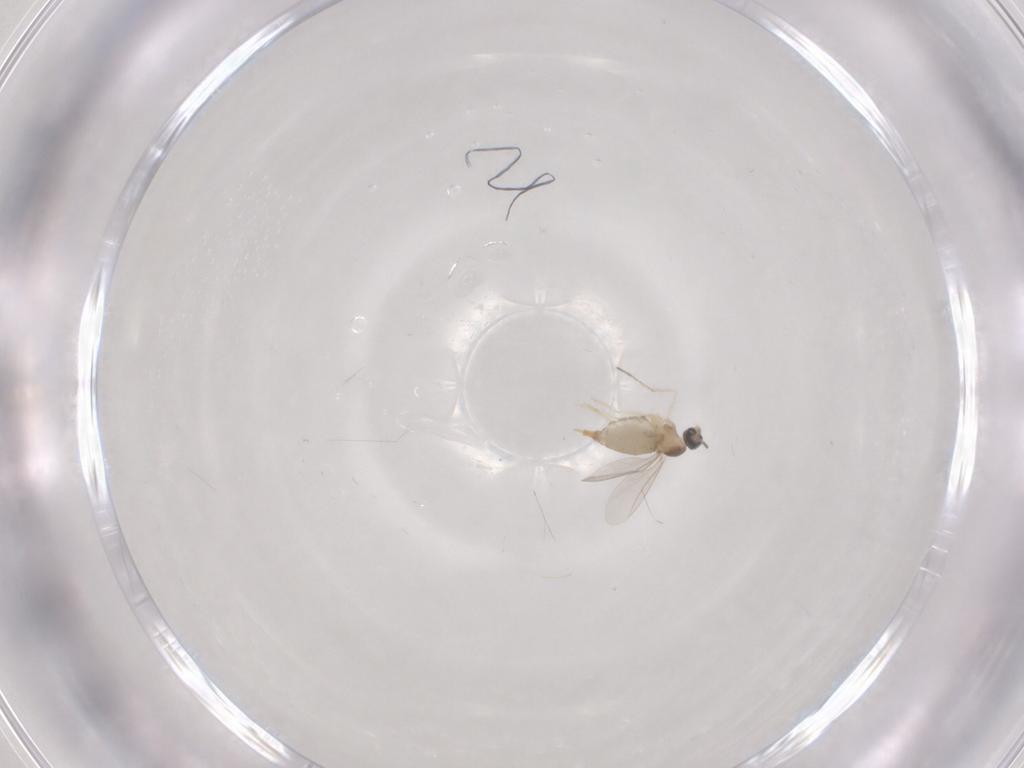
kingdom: Animalia
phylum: Arthropoda
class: Insecta
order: Diptera
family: Cecidomyiidae
